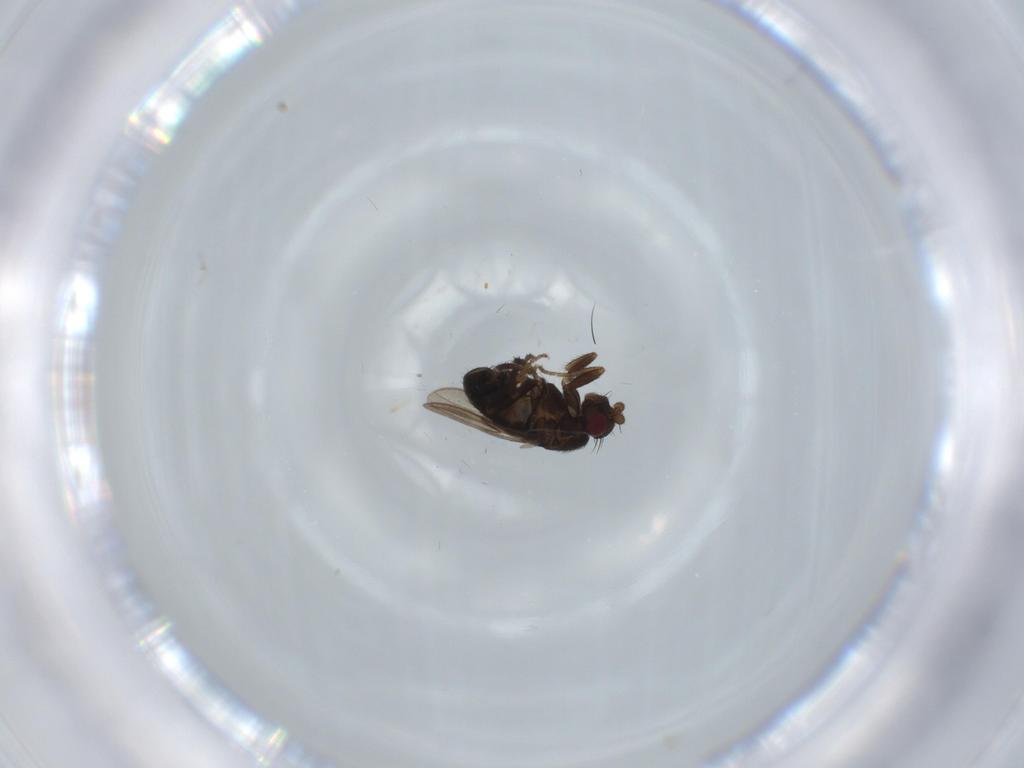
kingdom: Animalia
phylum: Arthropoda
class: Insecta
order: Diptera
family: Sphaeroceridae
